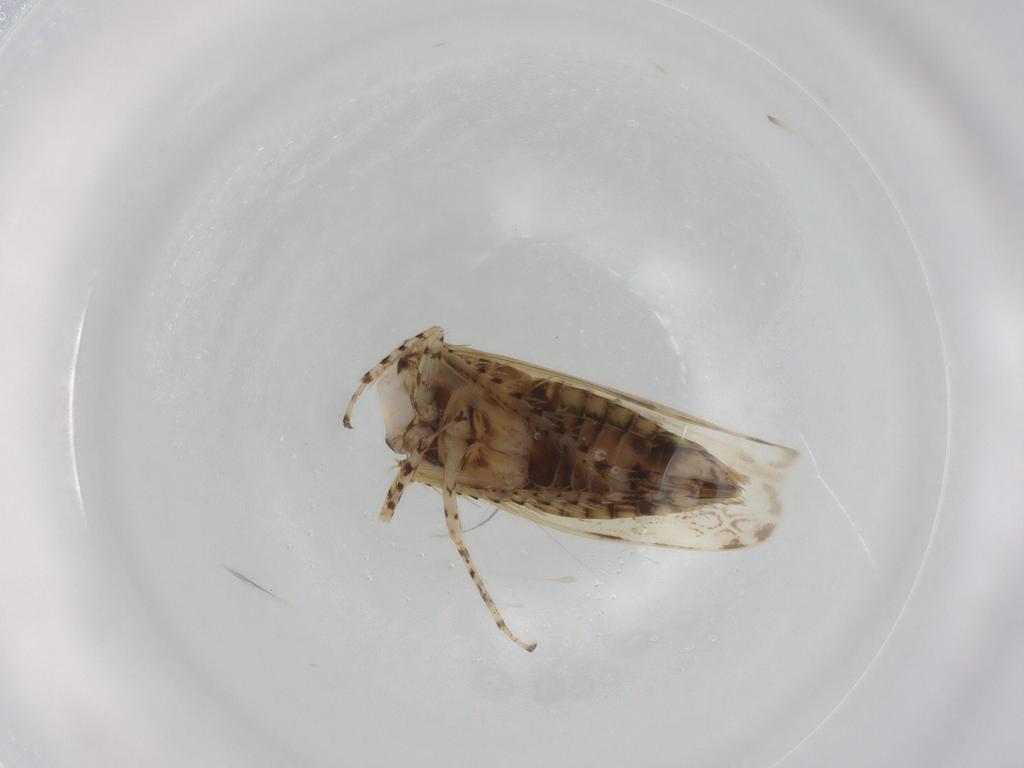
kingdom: Animalia
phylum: Arthropoda
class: Insecta
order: Hemiptera
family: Cicadellidae
